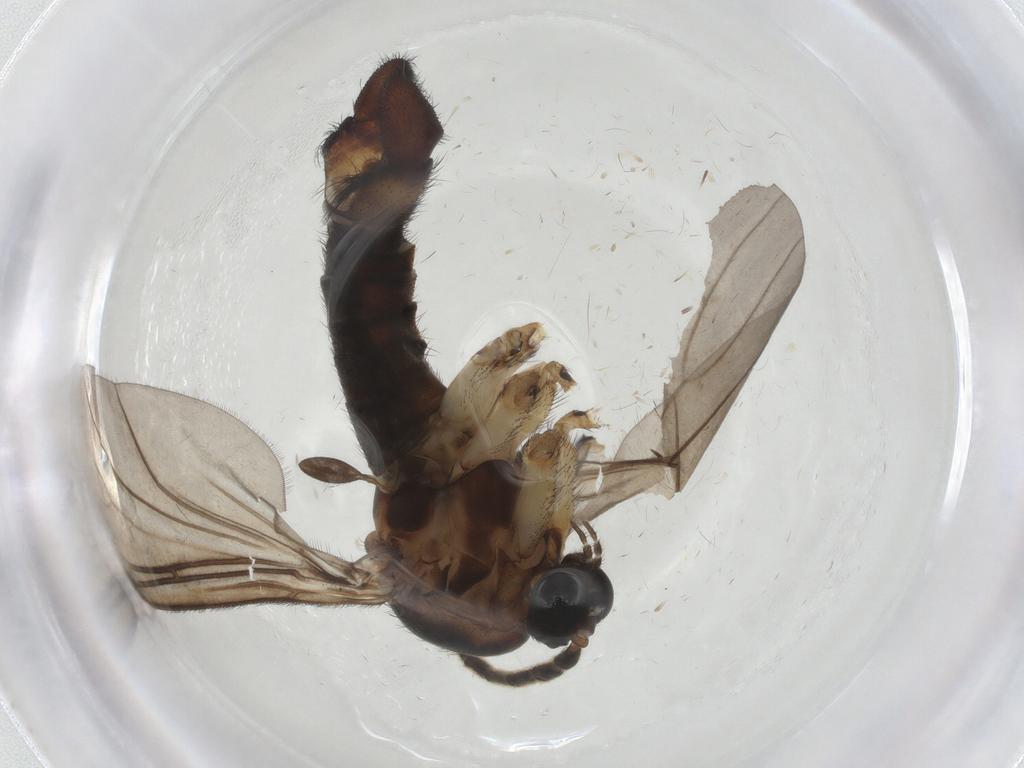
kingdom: Animalia
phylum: Arthropoda
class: Insecta
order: Diptera
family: Sciaridae
